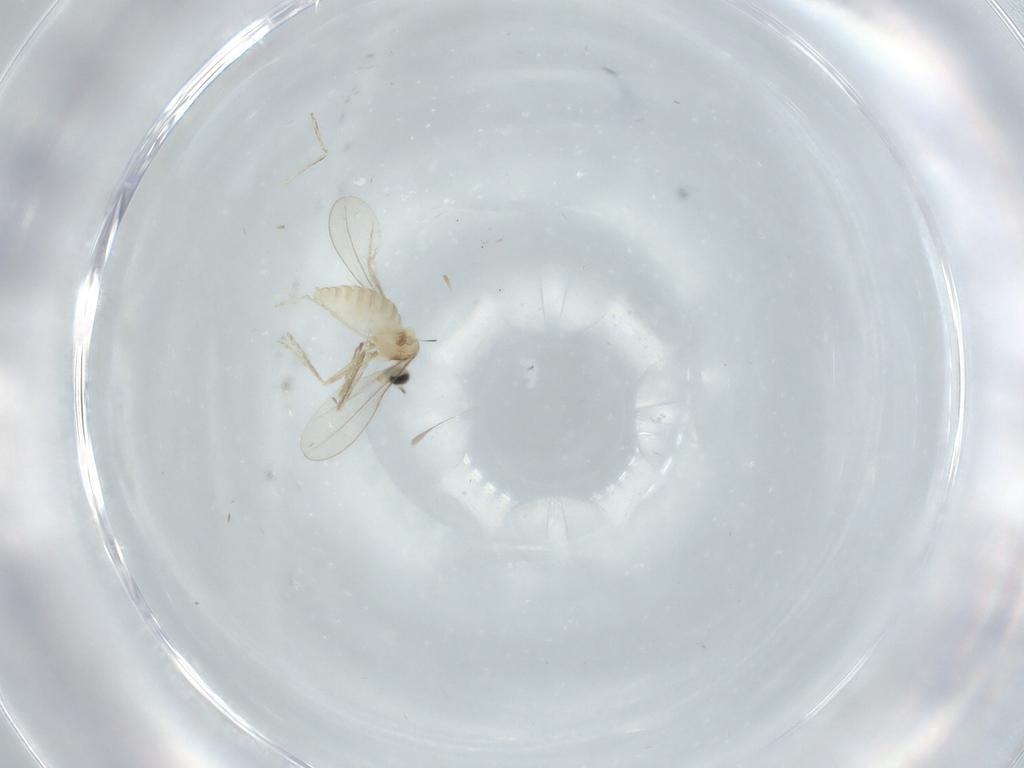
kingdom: Animalia
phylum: Arthropoda
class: Insecta
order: Diptera
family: Cecidomyiidae
